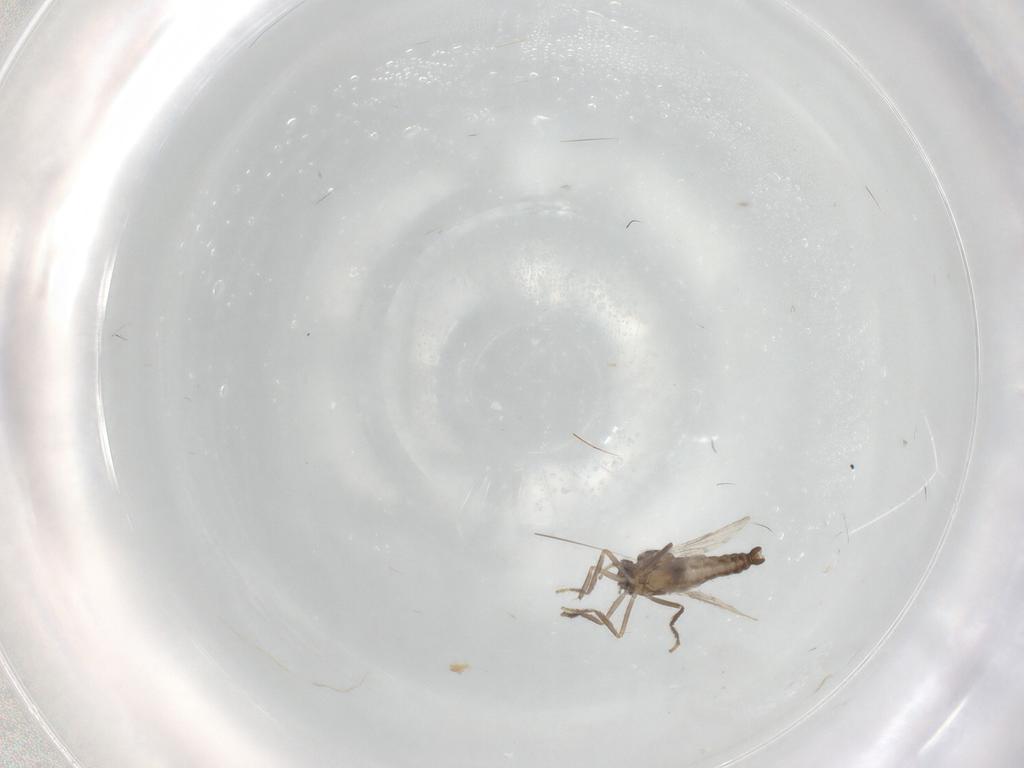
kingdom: Animalia
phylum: Arthropoda
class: Insecta
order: Diptera
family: Ceratopogonidae
